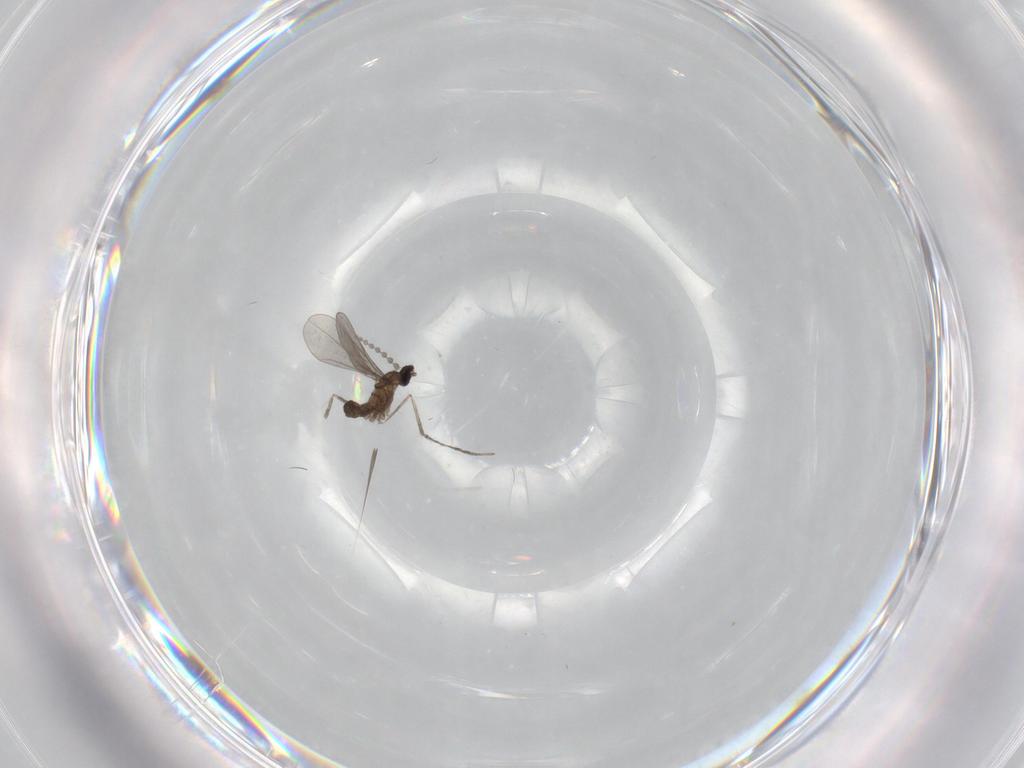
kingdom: Animalia
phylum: Arthropoda
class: Insecta
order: Diptera
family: Cecidomyiidae
